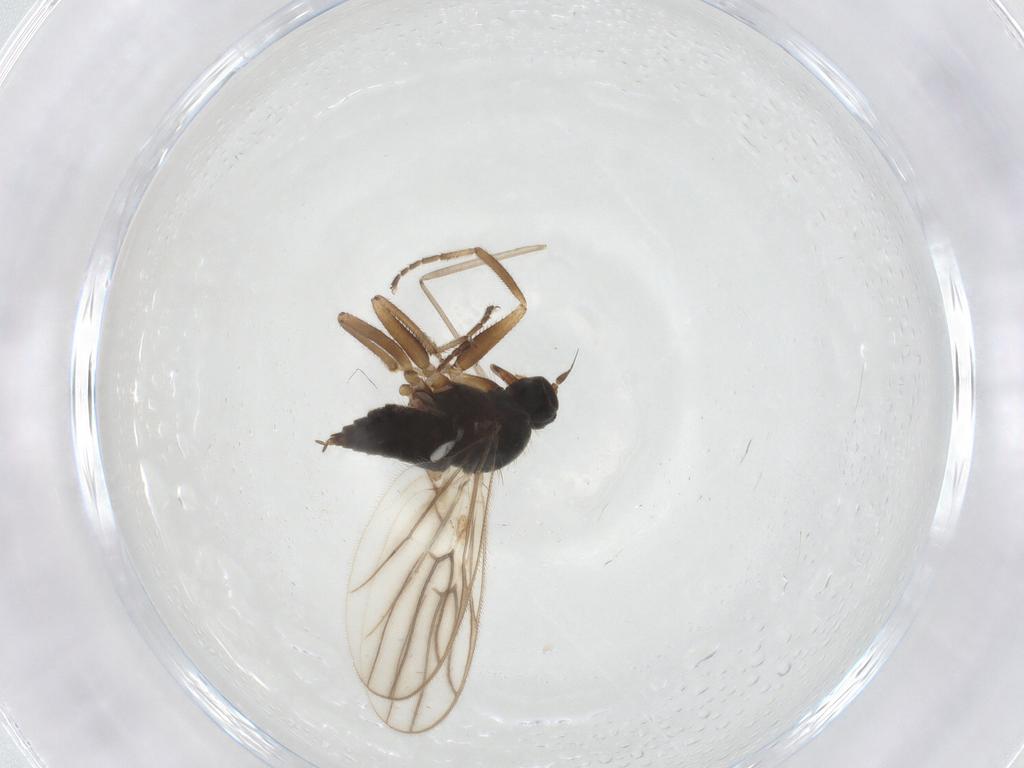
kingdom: Animalia
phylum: Arthropoda
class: Insecta
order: Diptera
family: Hybotidae
